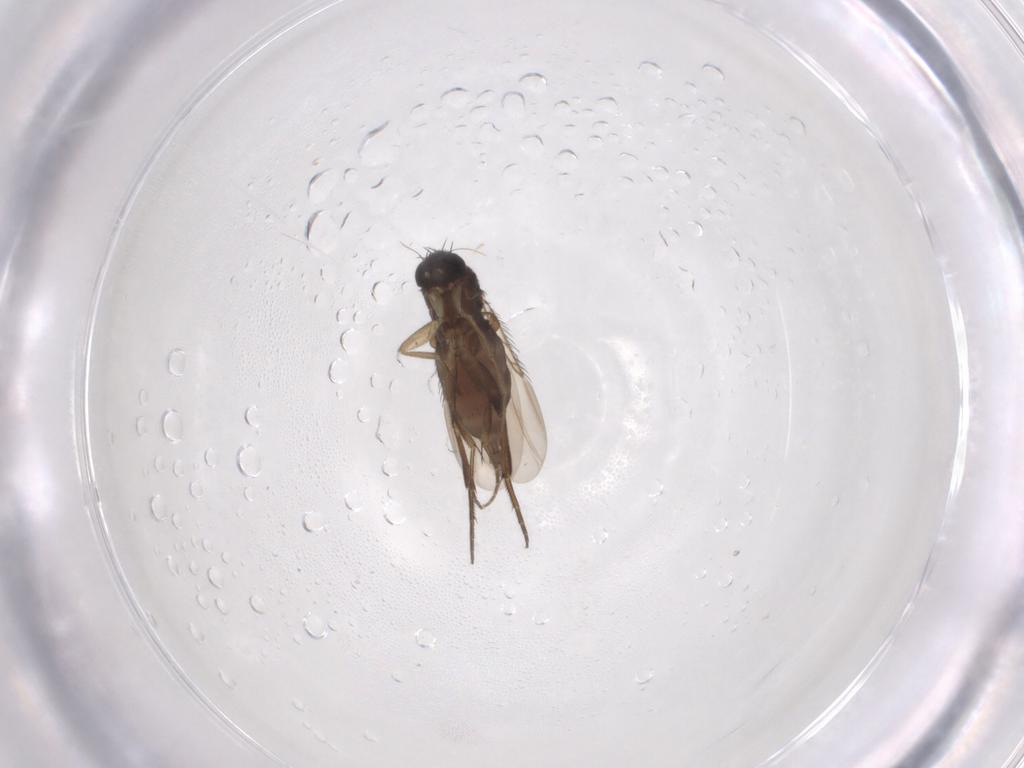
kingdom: Animalia
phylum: Arthropoda
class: Insecta
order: Diptera
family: Phoridae
